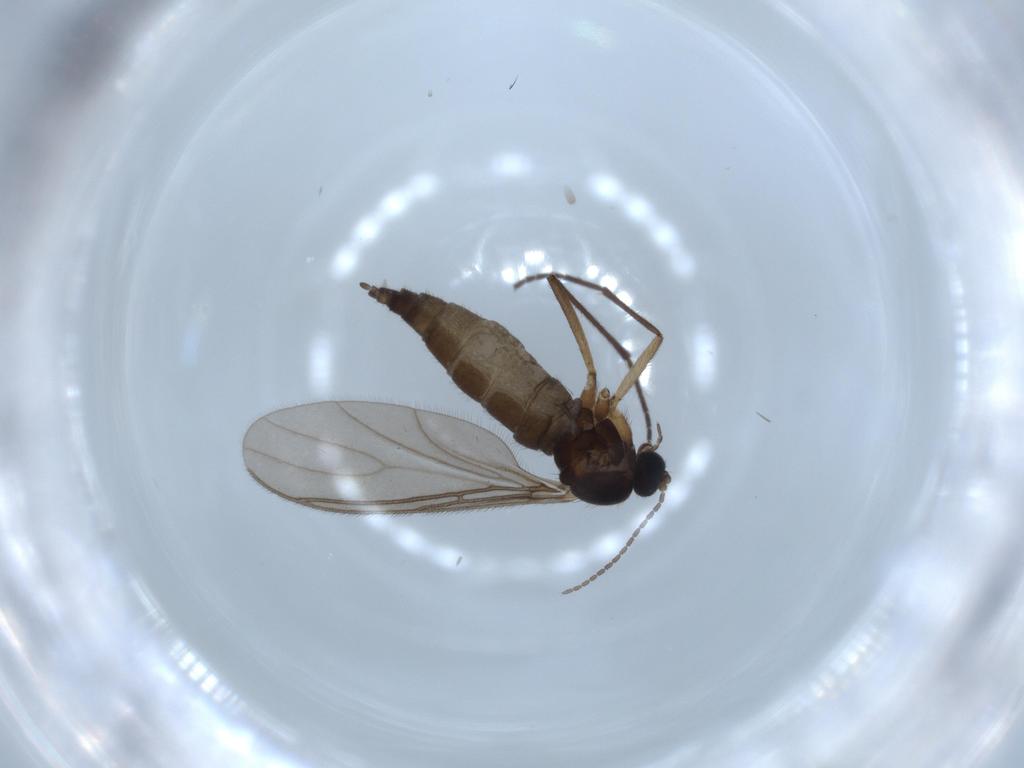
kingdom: Animalia
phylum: Arthropoda
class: Insecta
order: Diptera
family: Sciaridae
